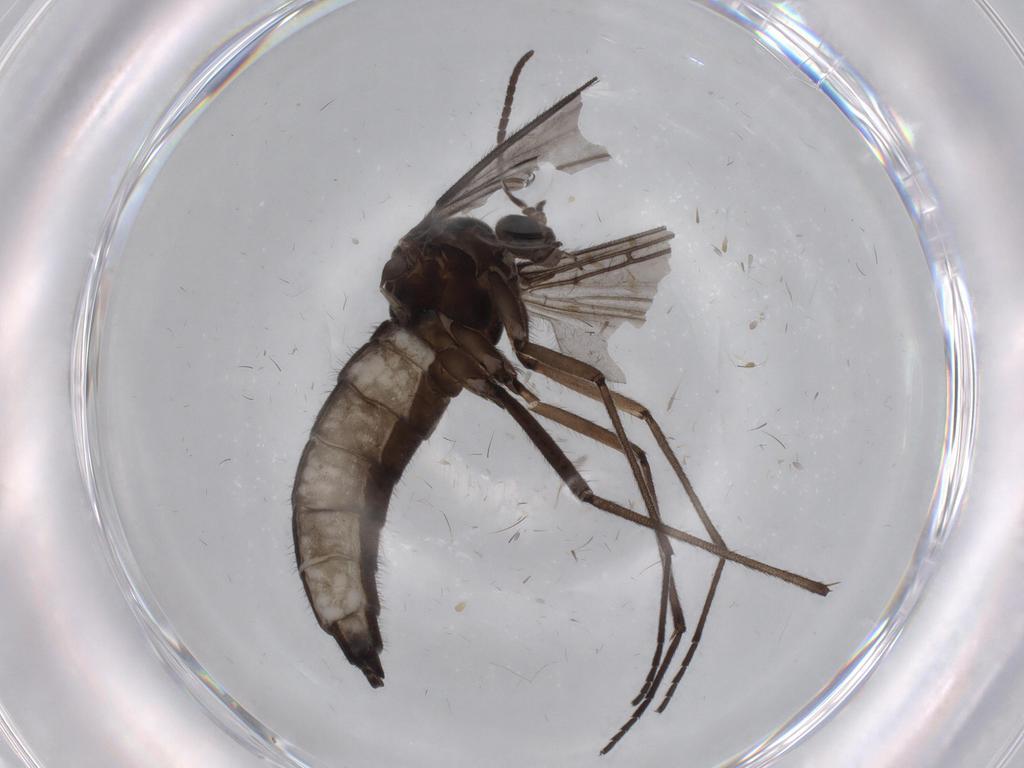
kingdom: Animalia
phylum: Arthropoda
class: Insecta
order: Diptera
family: Sciaridae
